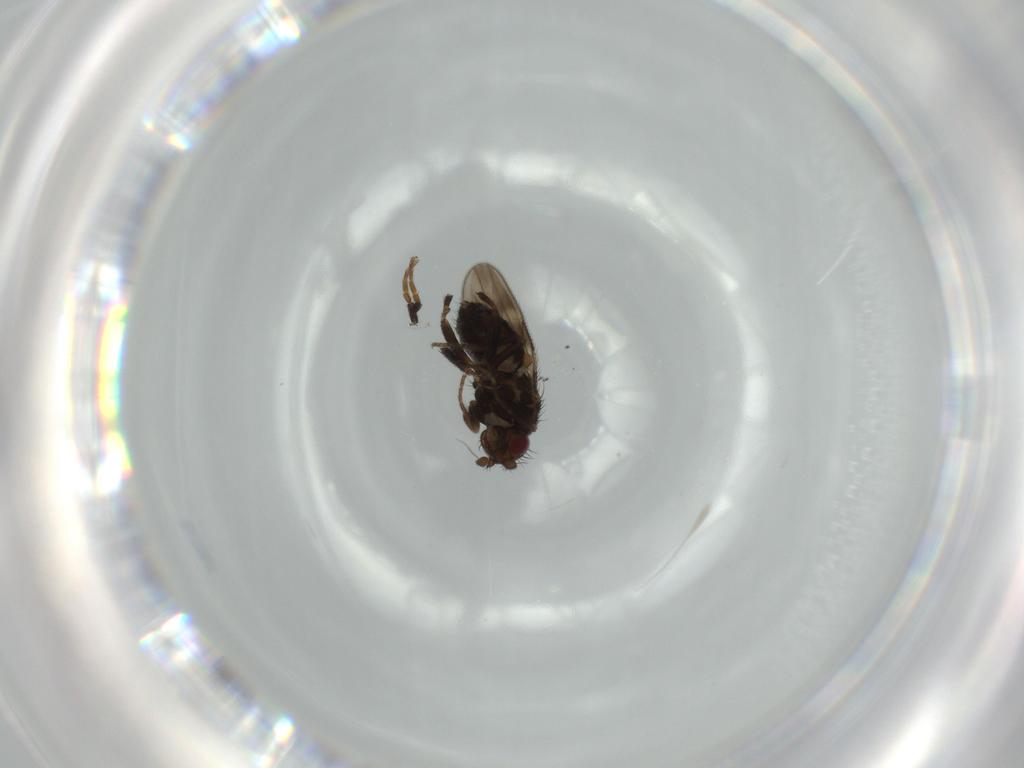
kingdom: Animalia
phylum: Arthropoda
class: Insecta
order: Diptera
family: Sphaeroceridae
